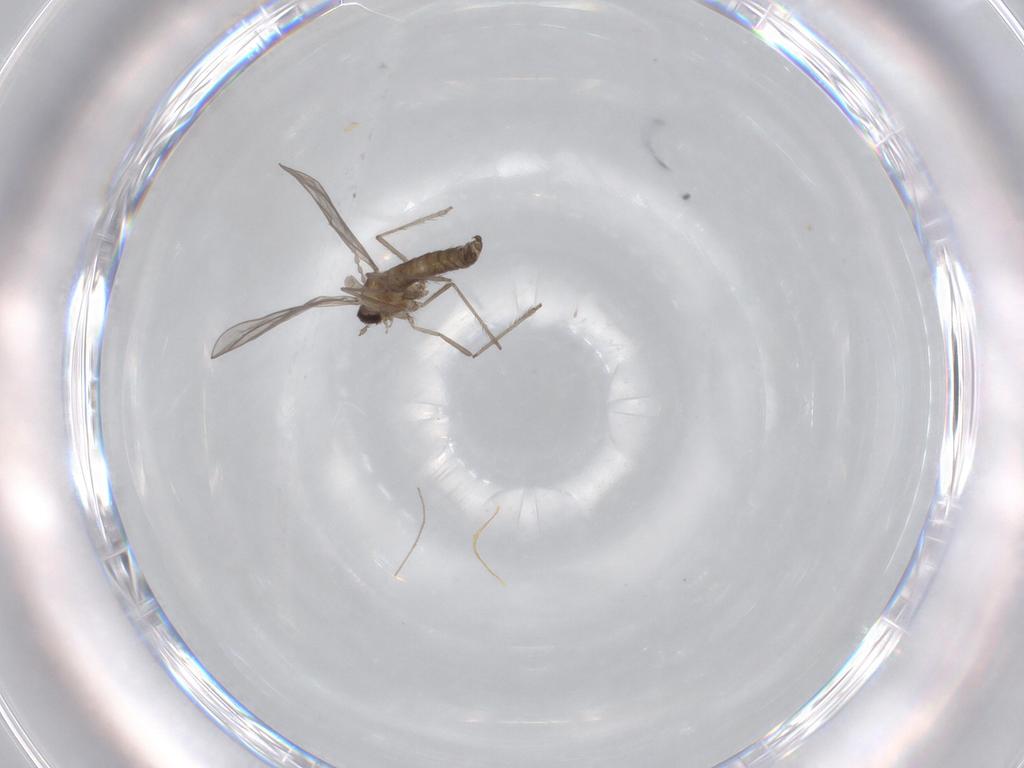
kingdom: Animalia
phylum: Arthropoda
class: Insecta
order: Diptera
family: Chironomidae
